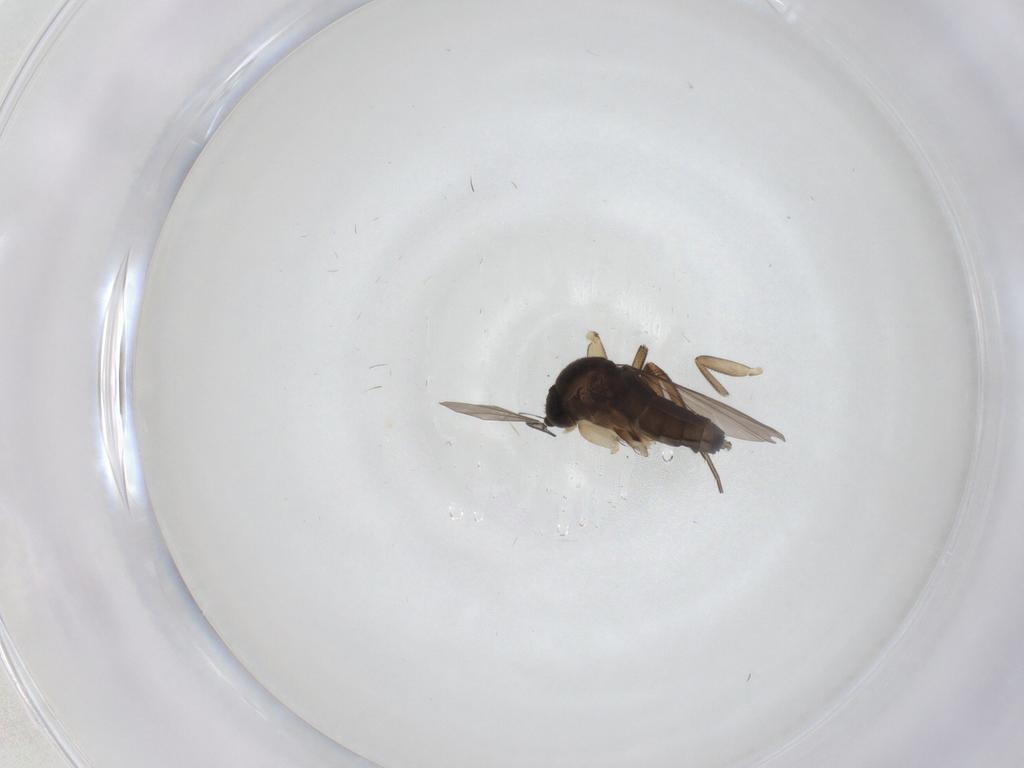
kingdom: Animalia
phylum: Arthropoda
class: Insecta
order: Diptera
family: Phoridae
